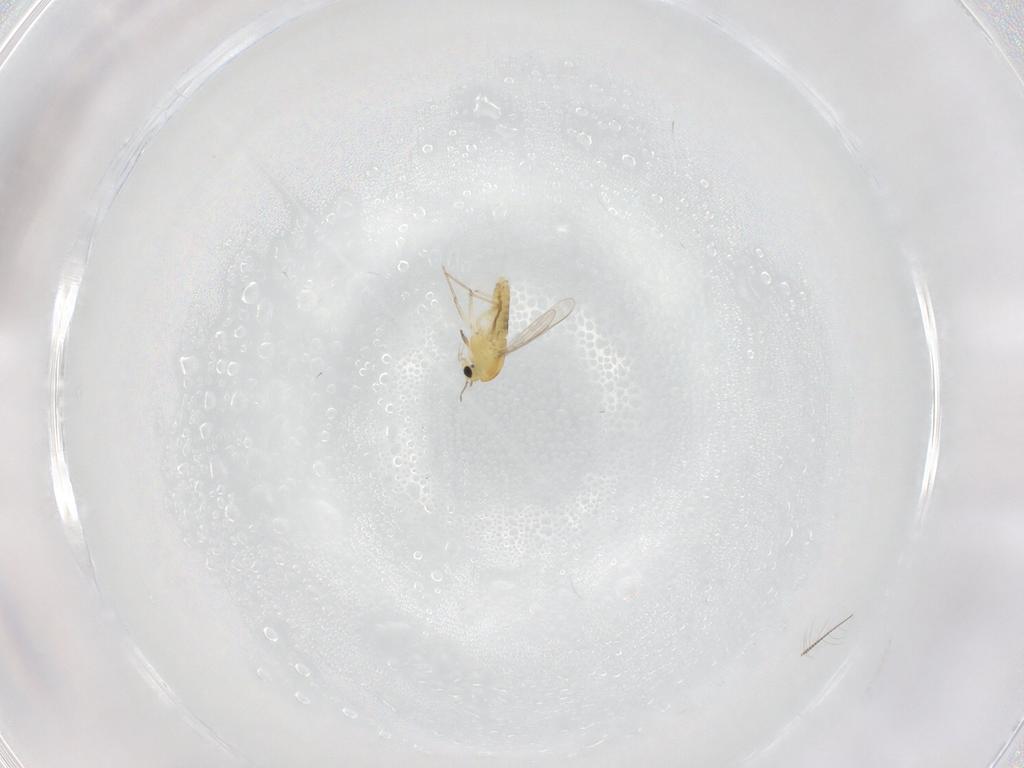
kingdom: Animalia
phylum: Arthropoda
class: Insecta
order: Diptera
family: Chironomidae
